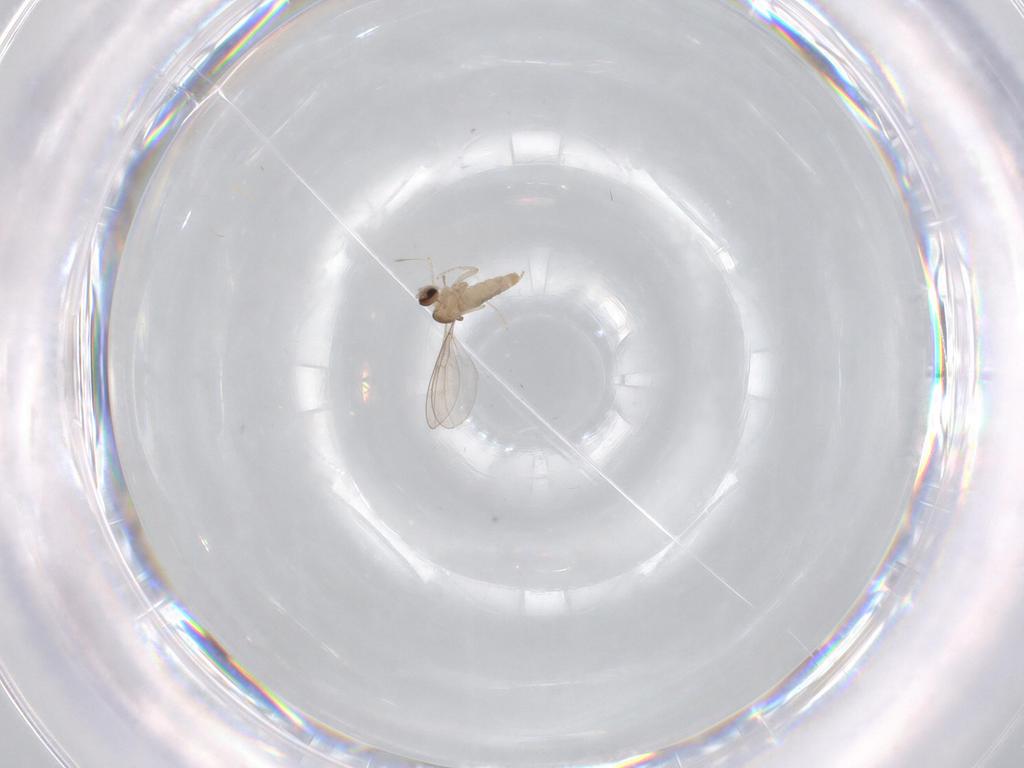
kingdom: Animalia
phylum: Arthropoda
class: Insecta
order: Diptera
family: Cecidomyiidae
